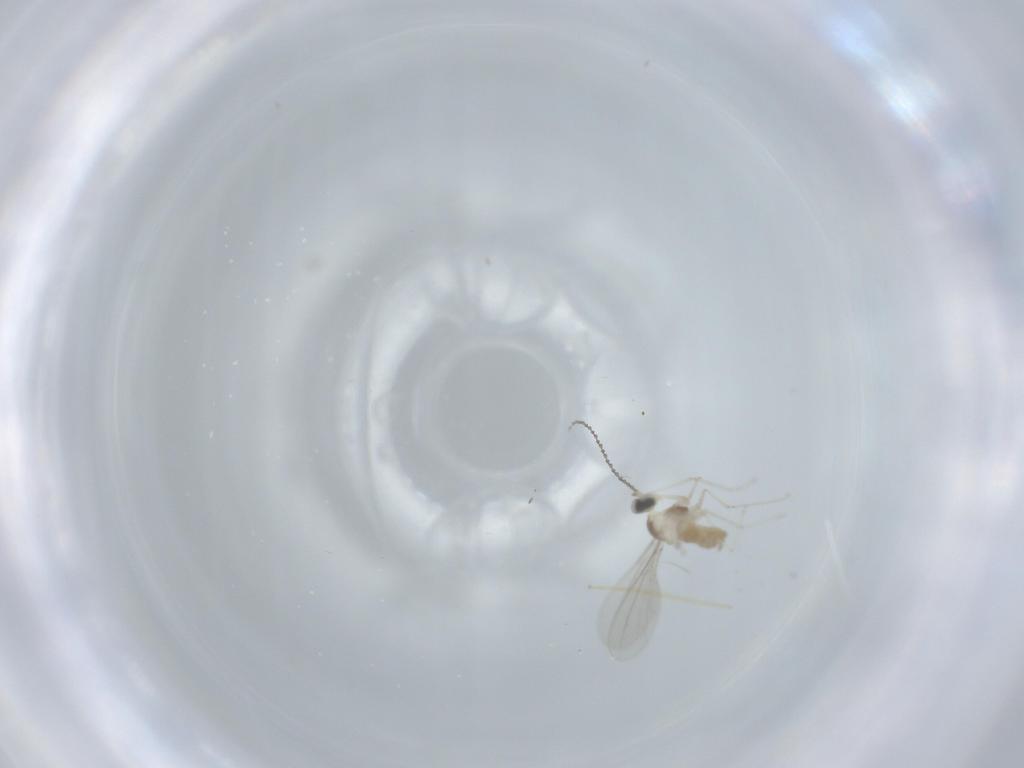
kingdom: Animalia
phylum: Arthropoda
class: Insecta
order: Diptera
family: Cecidomyiidae
